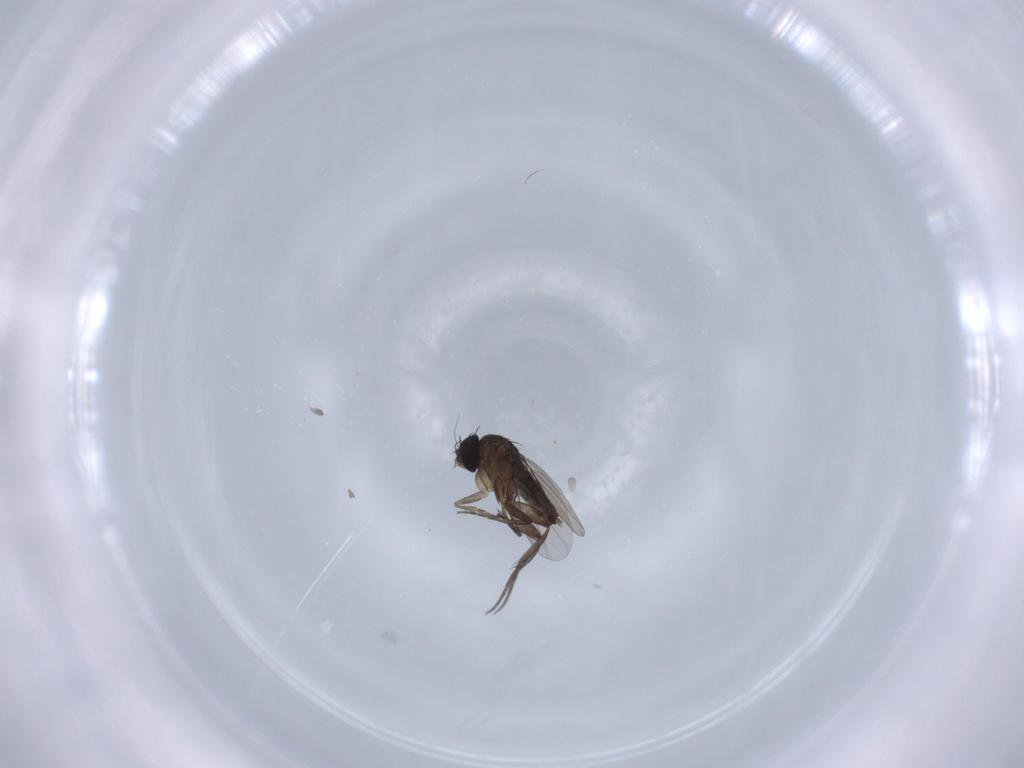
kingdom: Animalia
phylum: Arthropoda
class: Insecta
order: Diptera
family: Phoridae
